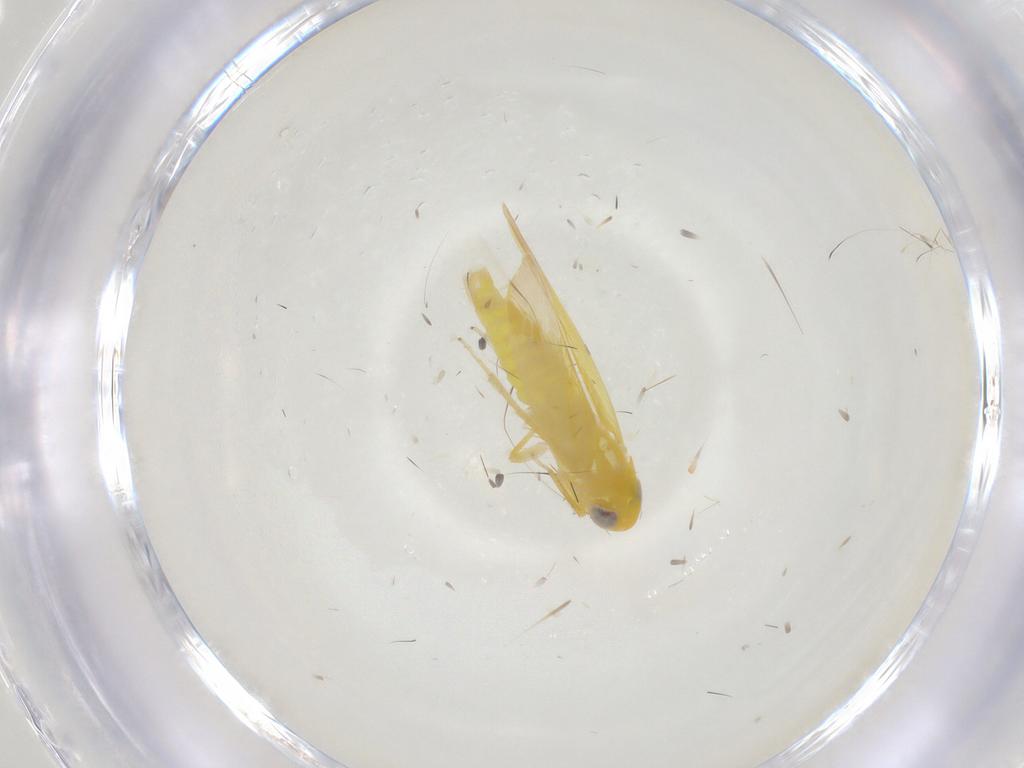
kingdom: Animalia
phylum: Arthropoda
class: Insecta
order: Hemiptera
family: Cicadellidae
